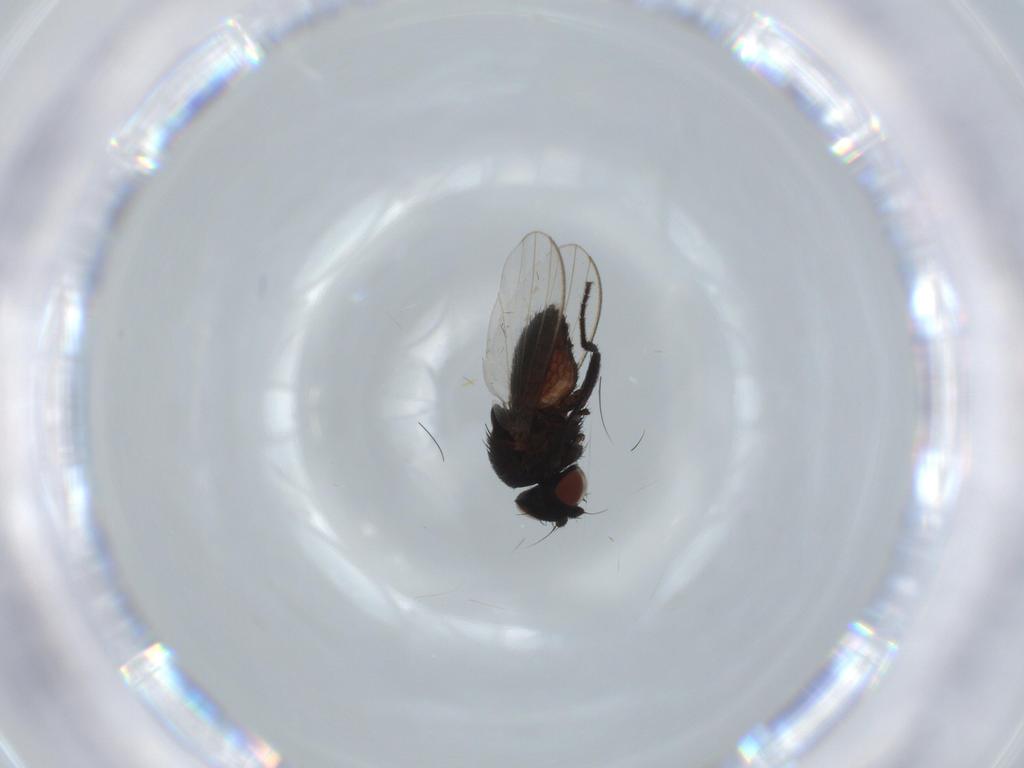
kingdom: Animalia
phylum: Arthropoda
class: Insecta
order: Diptera
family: Milichiidae
